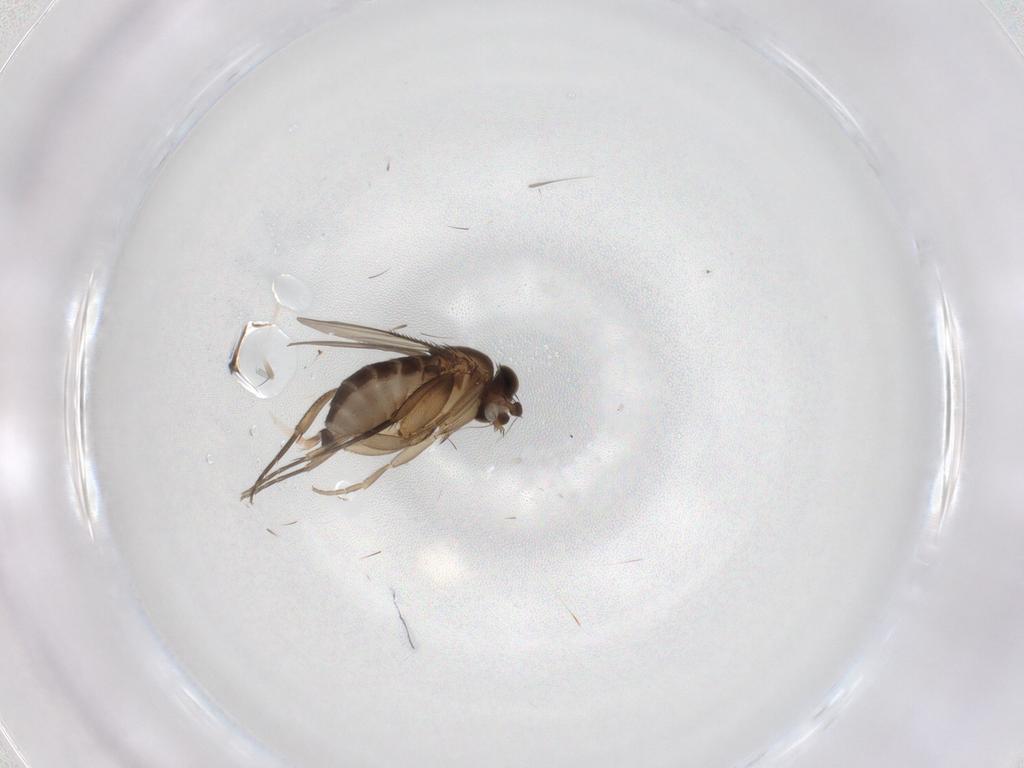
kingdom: Animalia
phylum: Arthropoda
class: Insecta
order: Diptera
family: Phoridae
